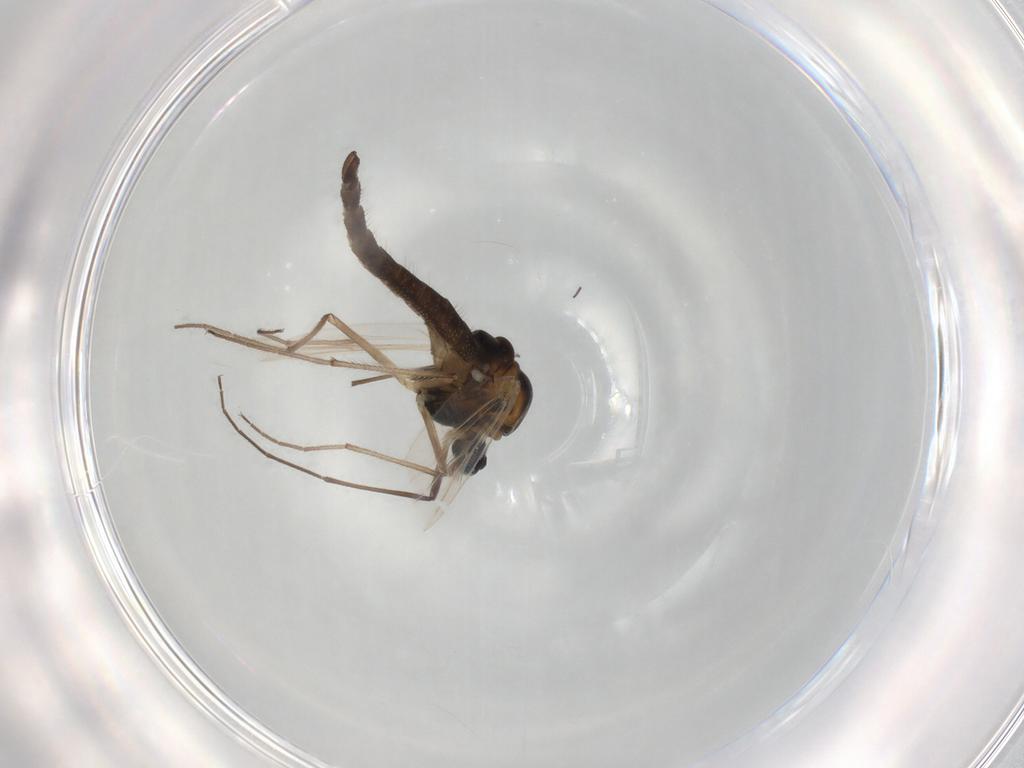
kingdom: Animalia
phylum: Arthropoda
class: Insecta
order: Diptera
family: Chironomidae
